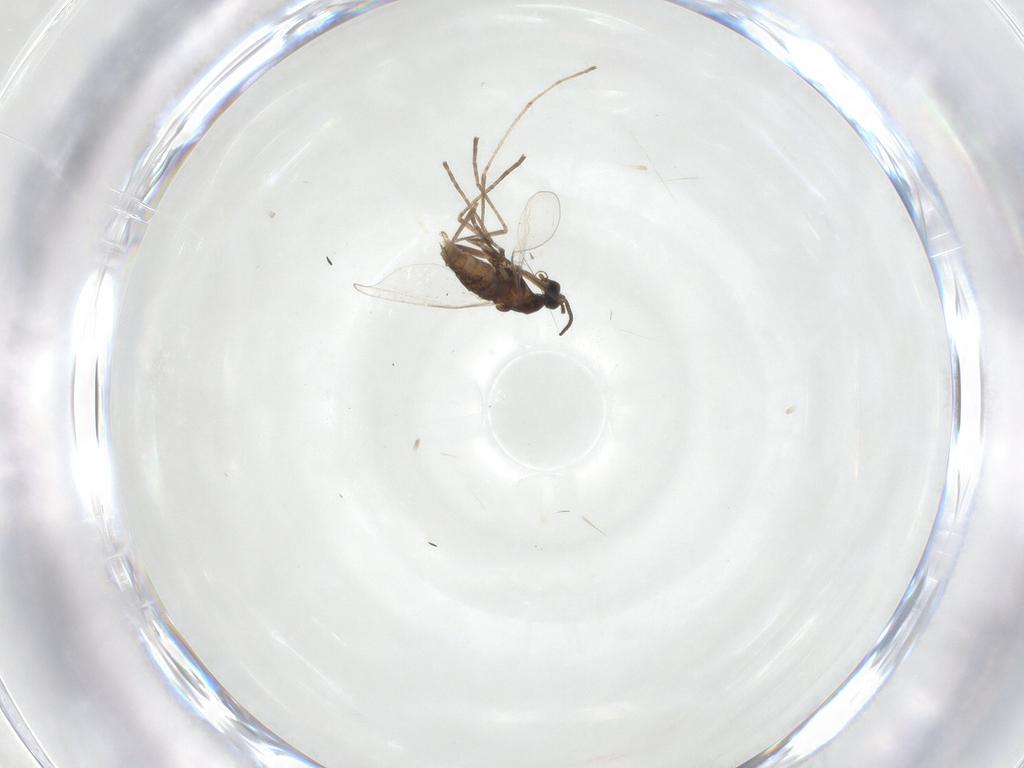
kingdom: Animalia
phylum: Arthropoda
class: Insecta
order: Diptera
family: Cecidomyiidae
